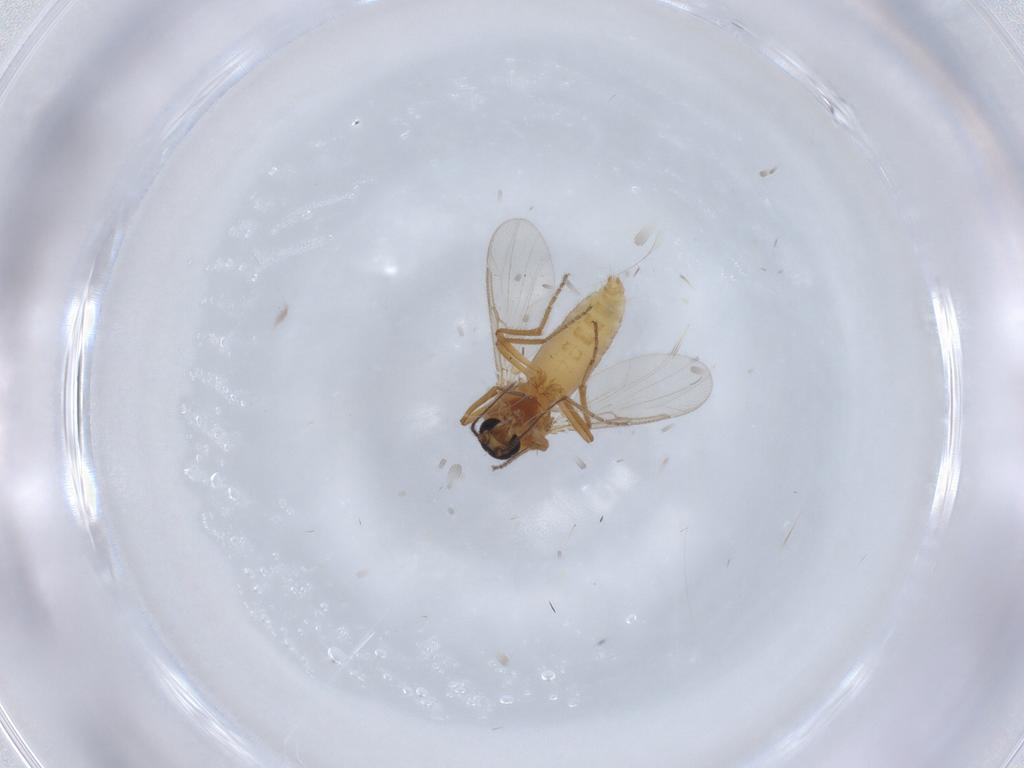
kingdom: Animalia
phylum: Arthropoda
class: Insecta
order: Diptera
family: Ceratopogonidae
